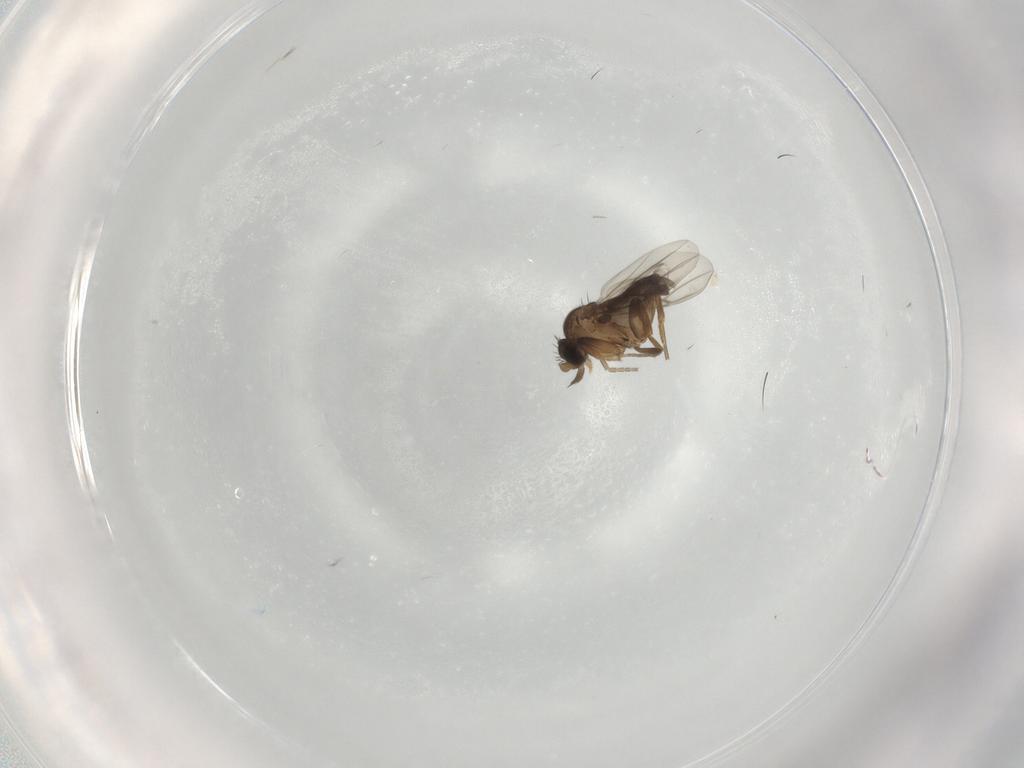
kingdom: Animalia
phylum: Arthropoda
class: Insecta
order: Diptera
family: Phoridae
